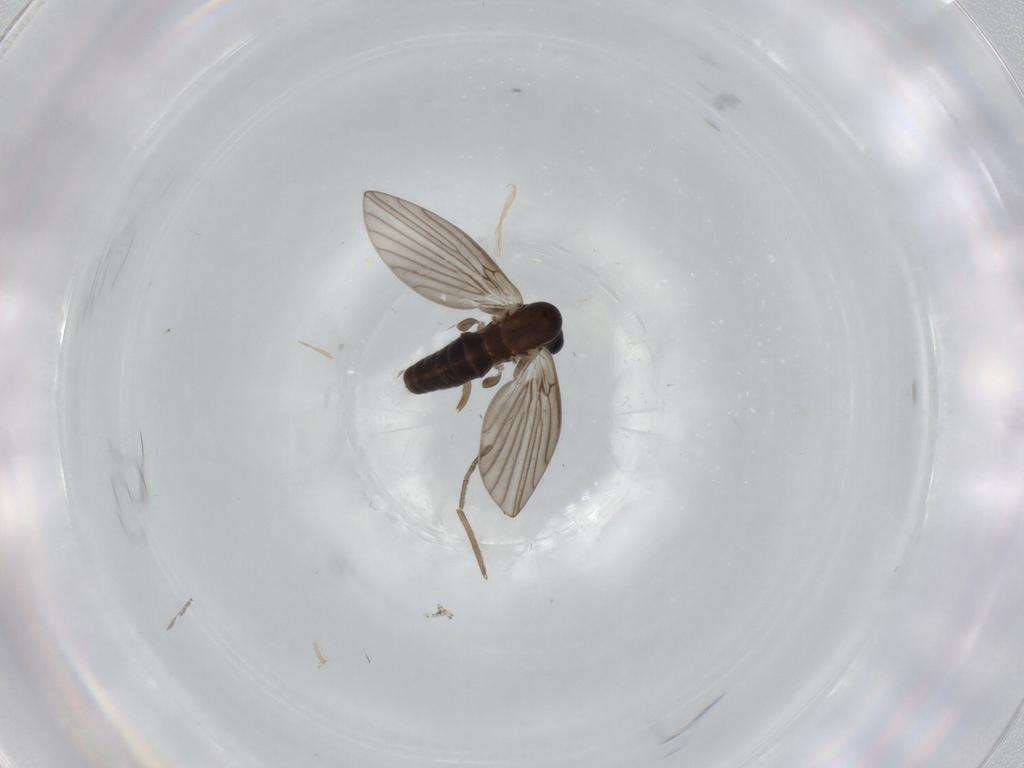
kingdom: Animalia
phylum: Arthropoda
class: Insecta
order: Diptera
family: Cecidomyiidae
